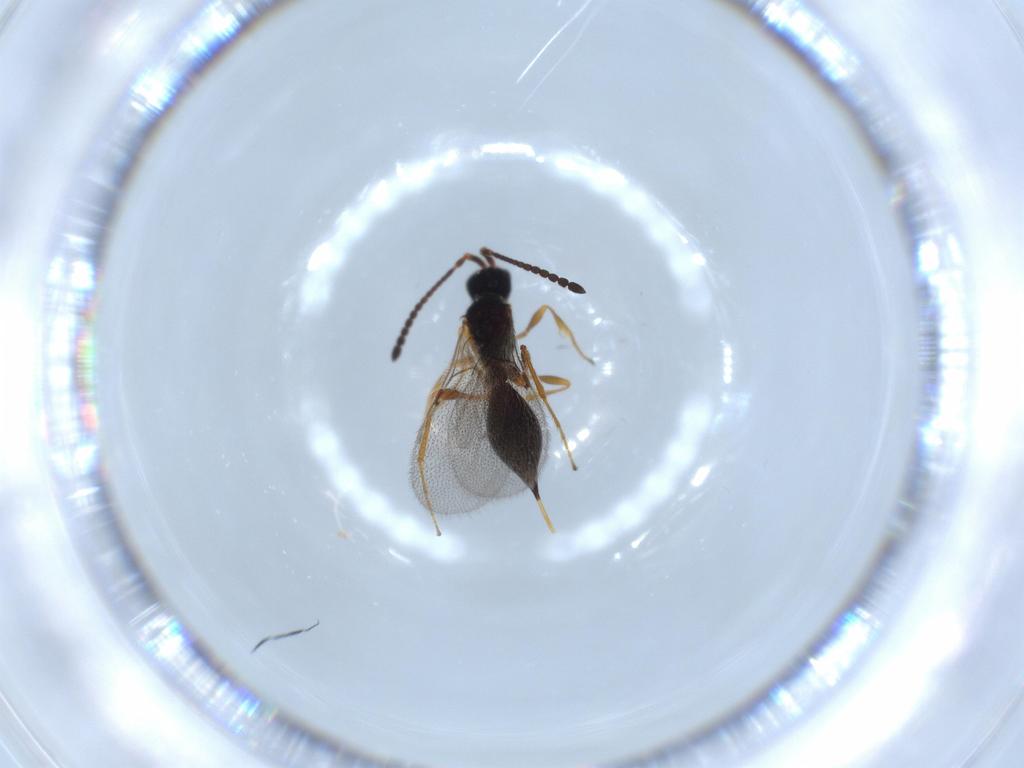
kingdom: Animalia
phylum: Arthropoda
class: Insecta
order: Hymenoptera
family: Diapriidae
